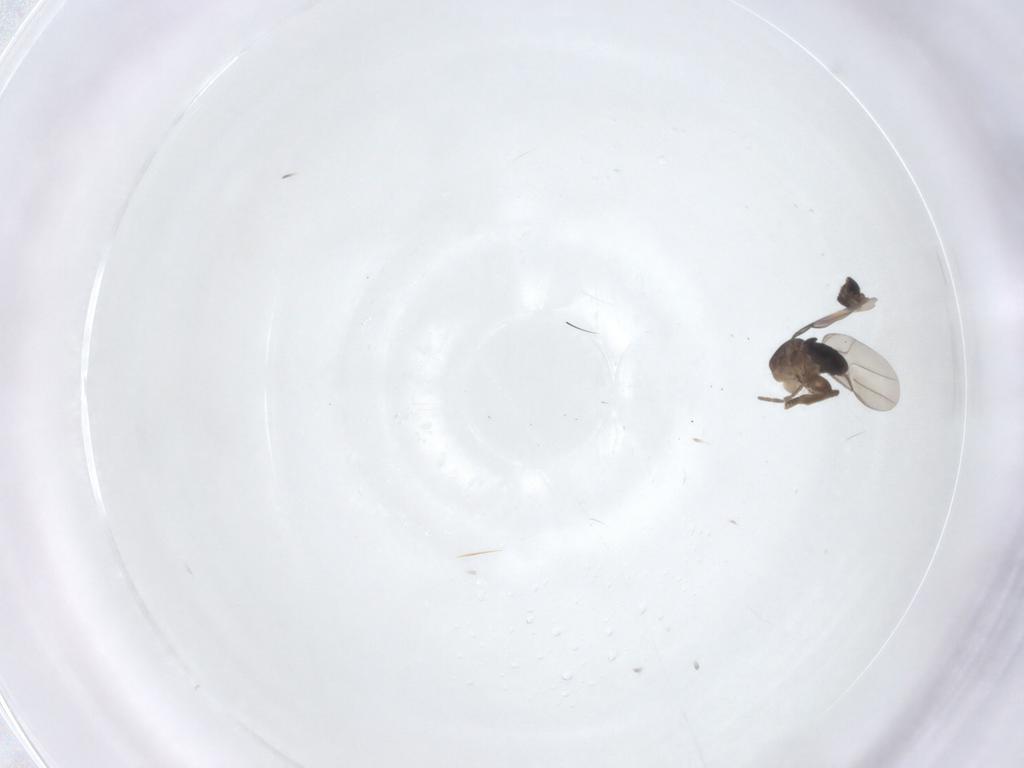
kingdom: Animalia
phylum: Arthropoda
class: Insecta
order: Diptera
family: Phoridae
